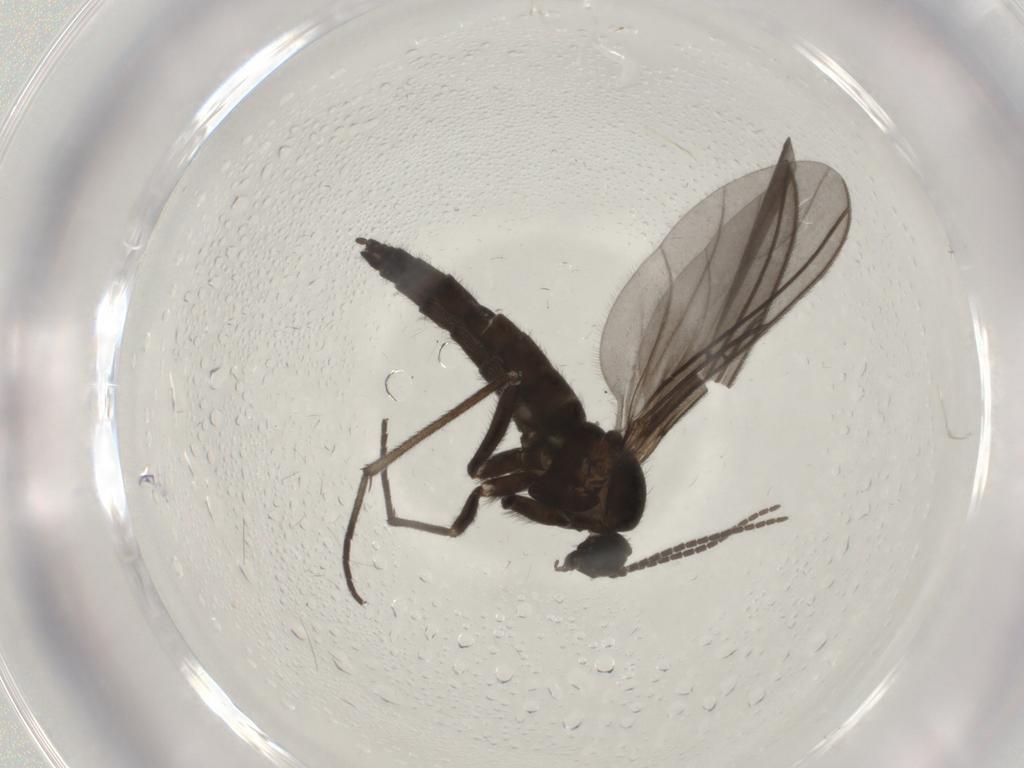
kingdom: Animalia
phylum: Arthropoda
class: Insecta
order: Diptera
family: Sciaridae
